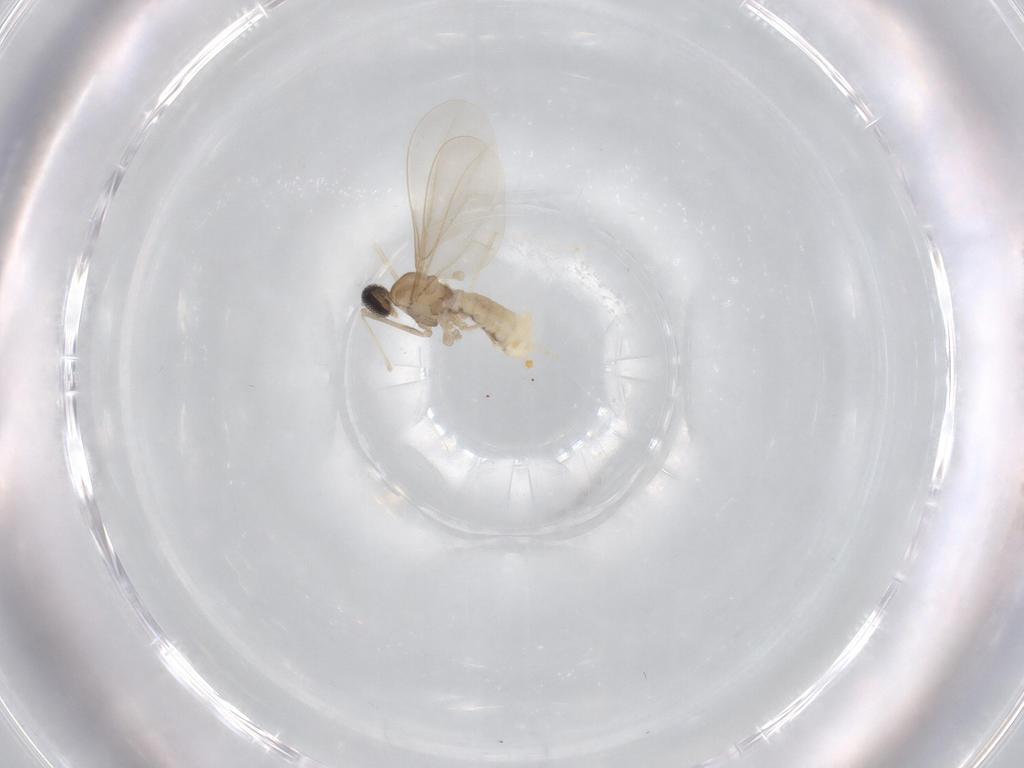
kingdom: Animalia
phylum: Arthropoda
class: Insecta
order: Diptera
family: Cecidomyiidae
